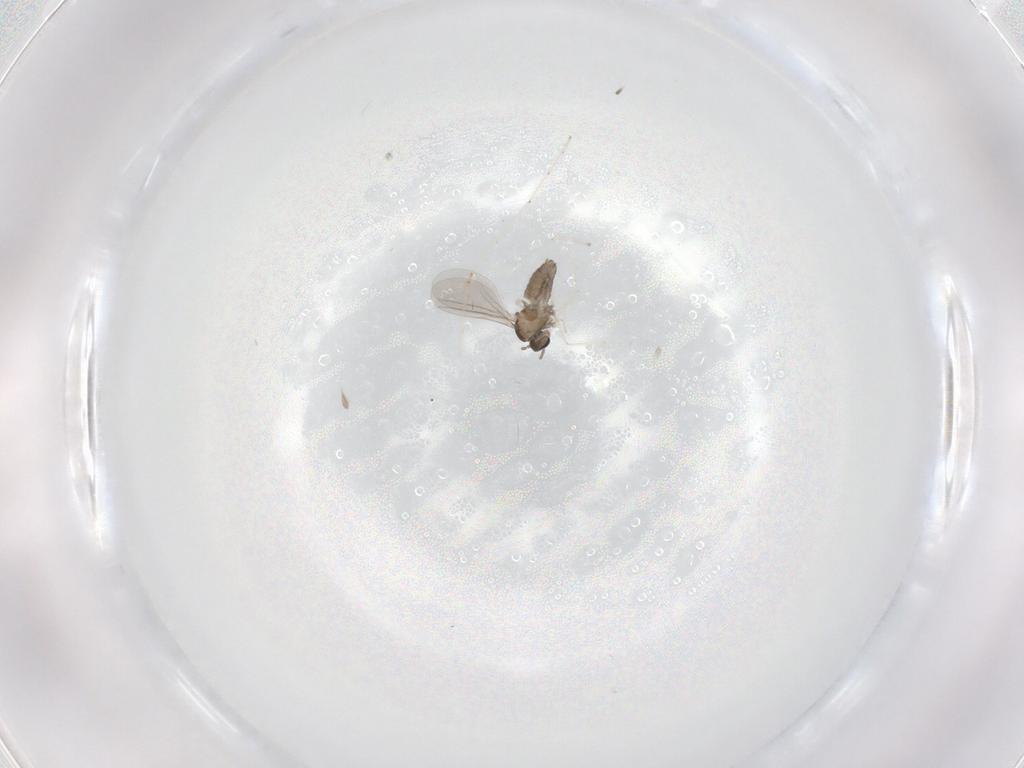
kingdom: Animalia
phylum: Arthropoda
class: Insecta
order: Diptera
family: Cecidomyiidae
